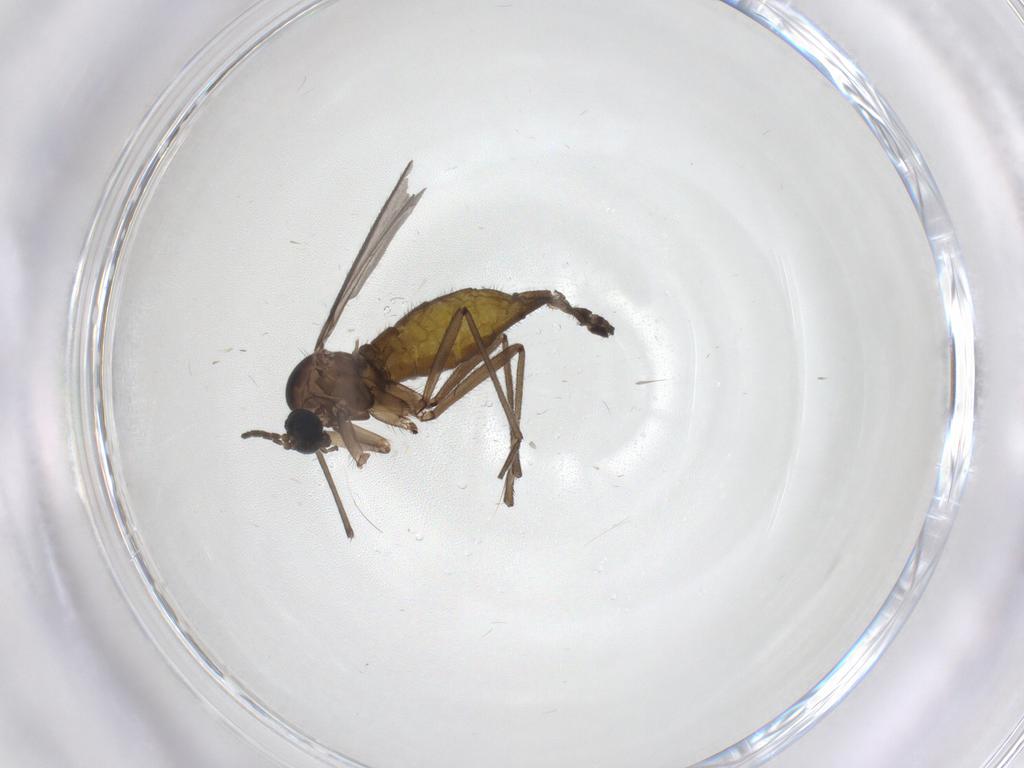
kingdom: Animalia
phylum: Arthropoda
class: Insecta
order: Diptera
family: Sciaridae
